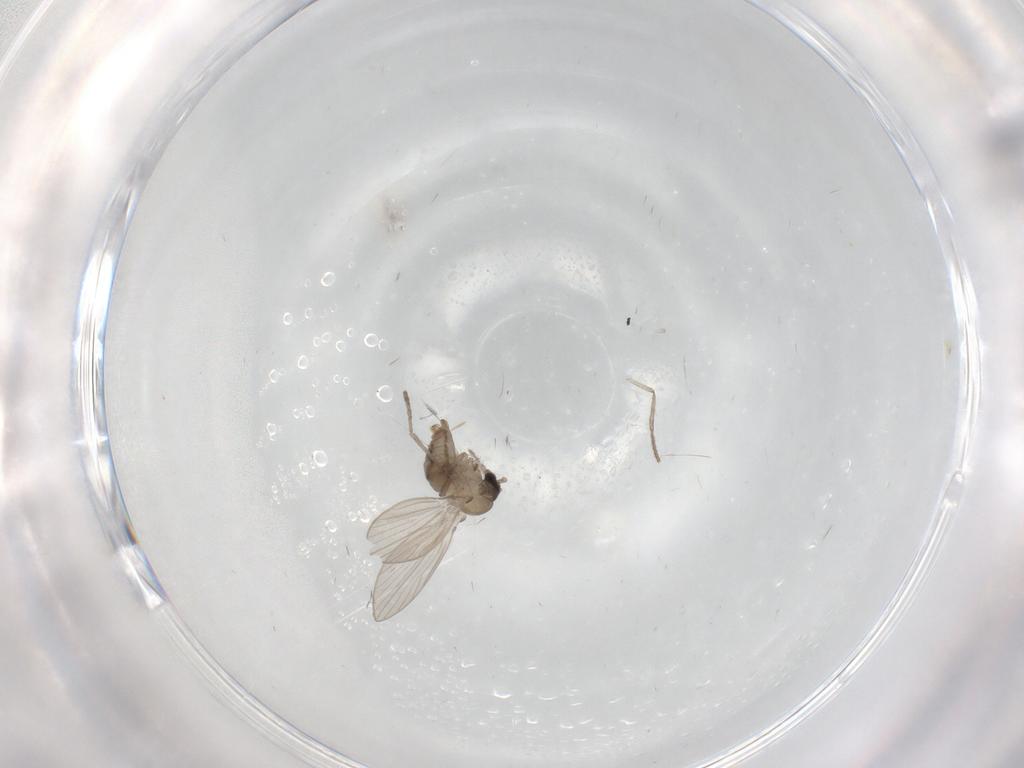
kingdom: Animalia
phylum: Arthropoda
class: Insecta
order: Diptera
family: Psychodidae
